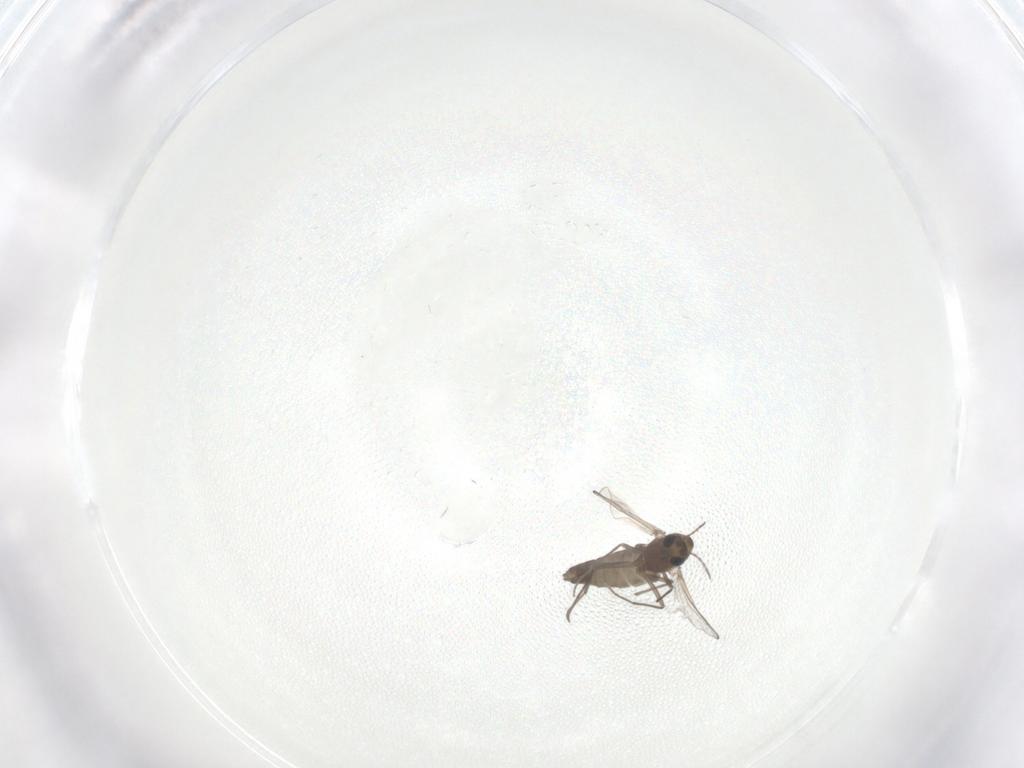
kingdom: Animalia
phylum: Arthropoda
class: Insecta
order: Diptera
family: Chironomidae
